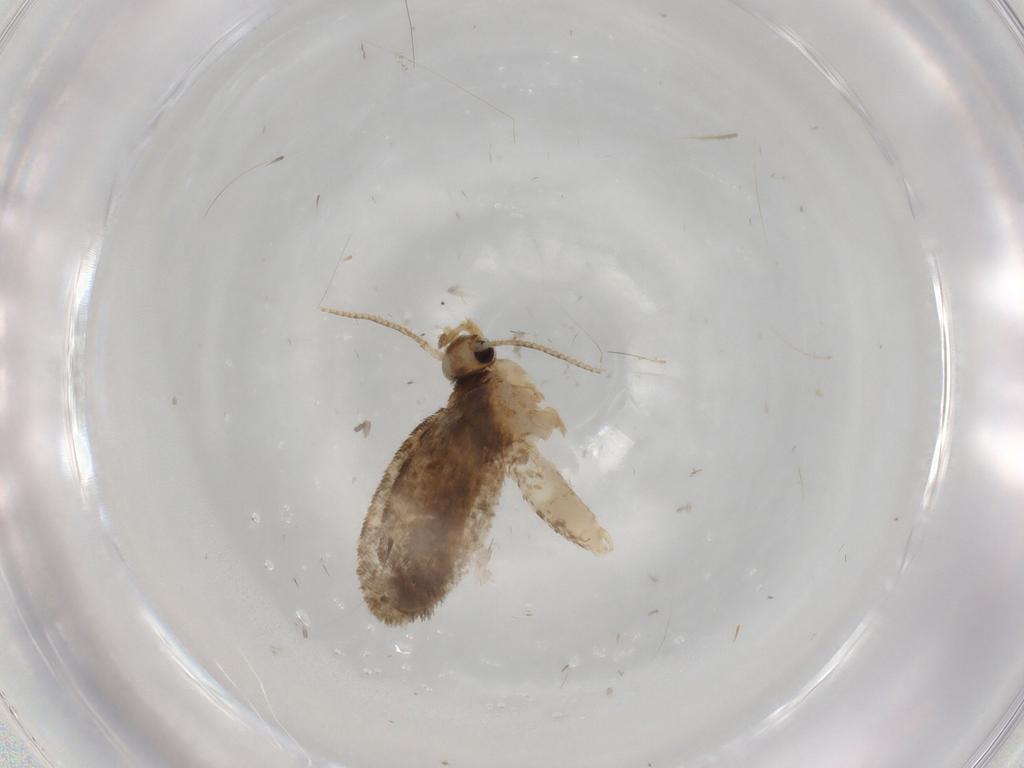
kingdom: Animalia
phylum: Arthropoda
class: Insecta
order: Lepidoptera
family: Psychidae
